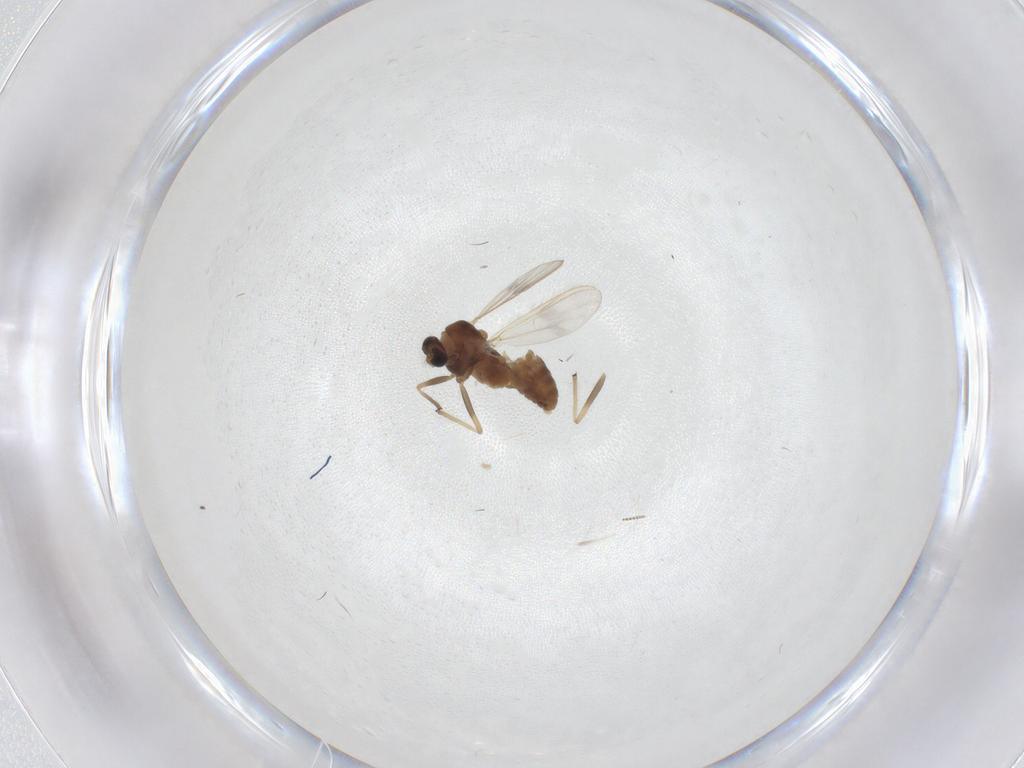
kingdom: Animalia
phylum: Arthropoda
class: Insecta
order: Diptera
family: Chironomidae
